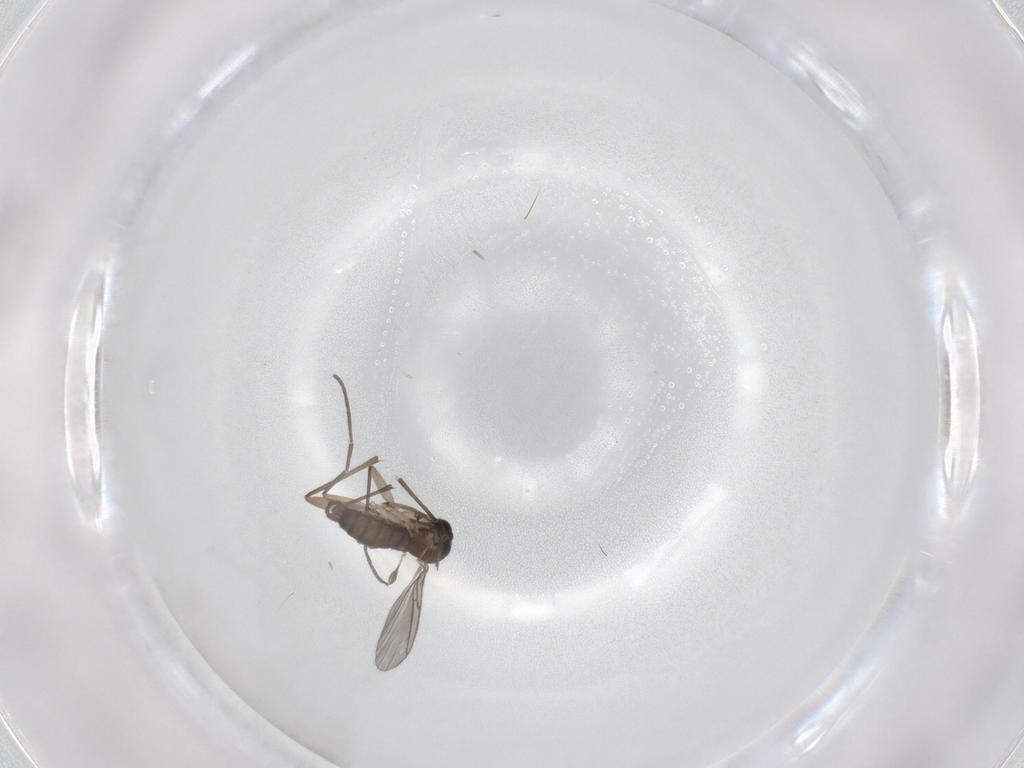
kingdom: Animalia
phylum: Arthropoda
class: Insecta
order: Diptera
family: Sciaridae
